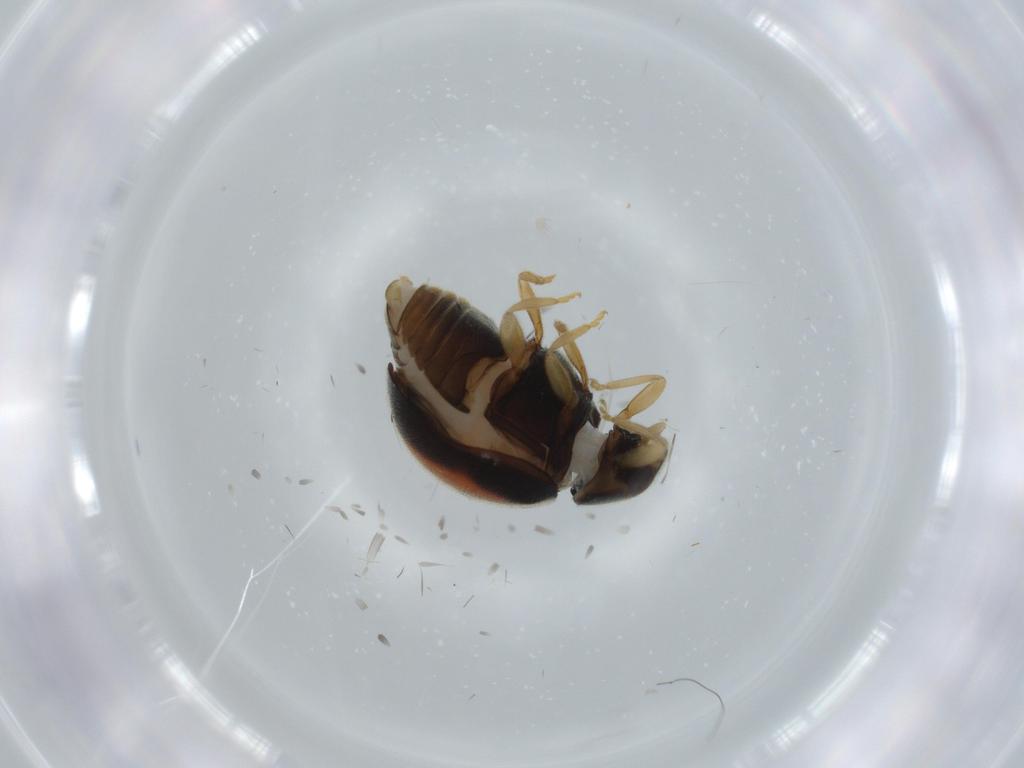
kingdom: Animalia
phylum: Arthropoda
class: Insecta
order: Coleoptera
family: Coccinellidae
